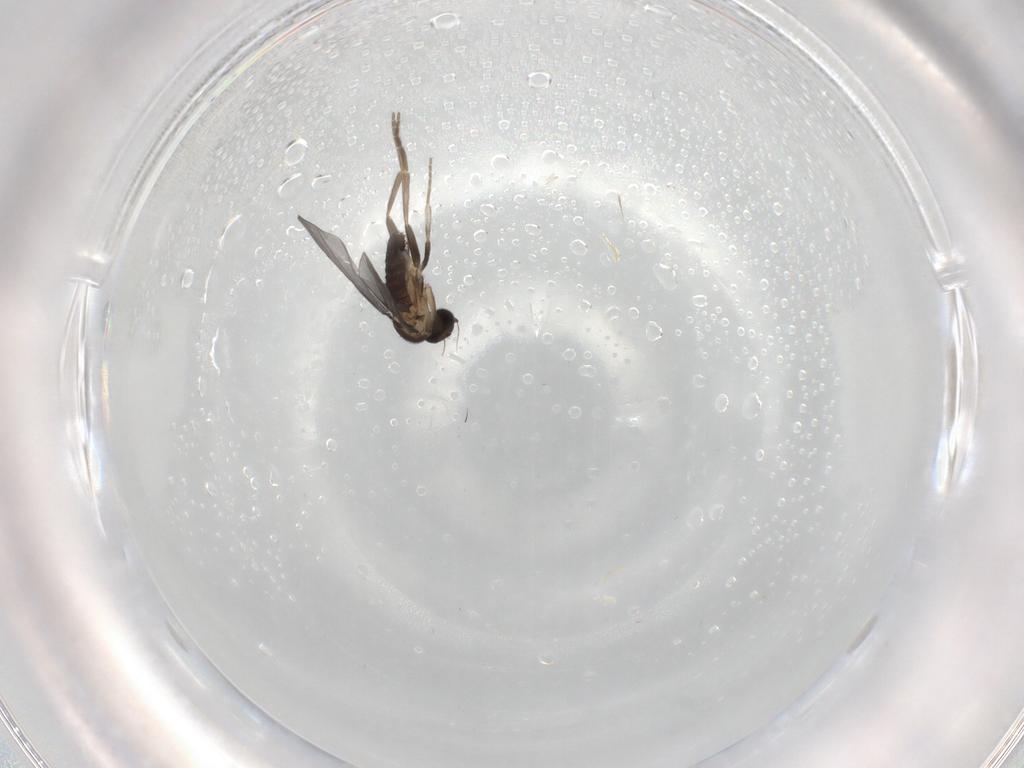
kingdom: Animalia
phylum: Arthropoda
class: Insecta
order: Diptera
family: Phoridae
